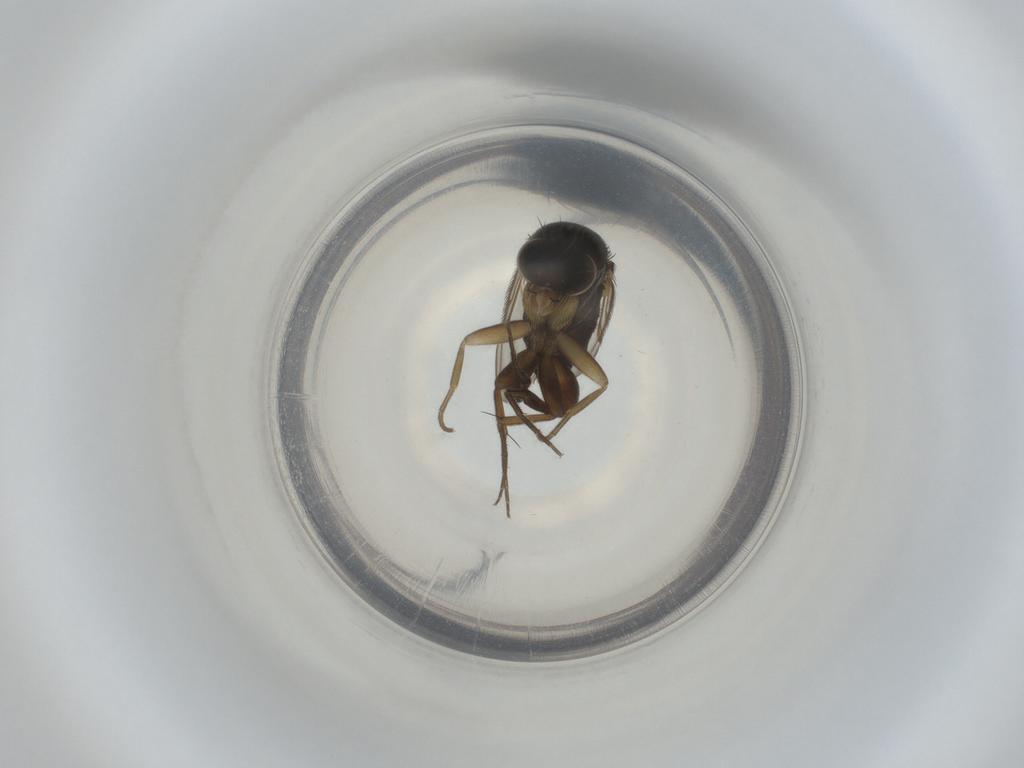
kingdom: Animalia
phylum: Arthropoda
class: Insecta
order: Diptera
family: Phoridae
